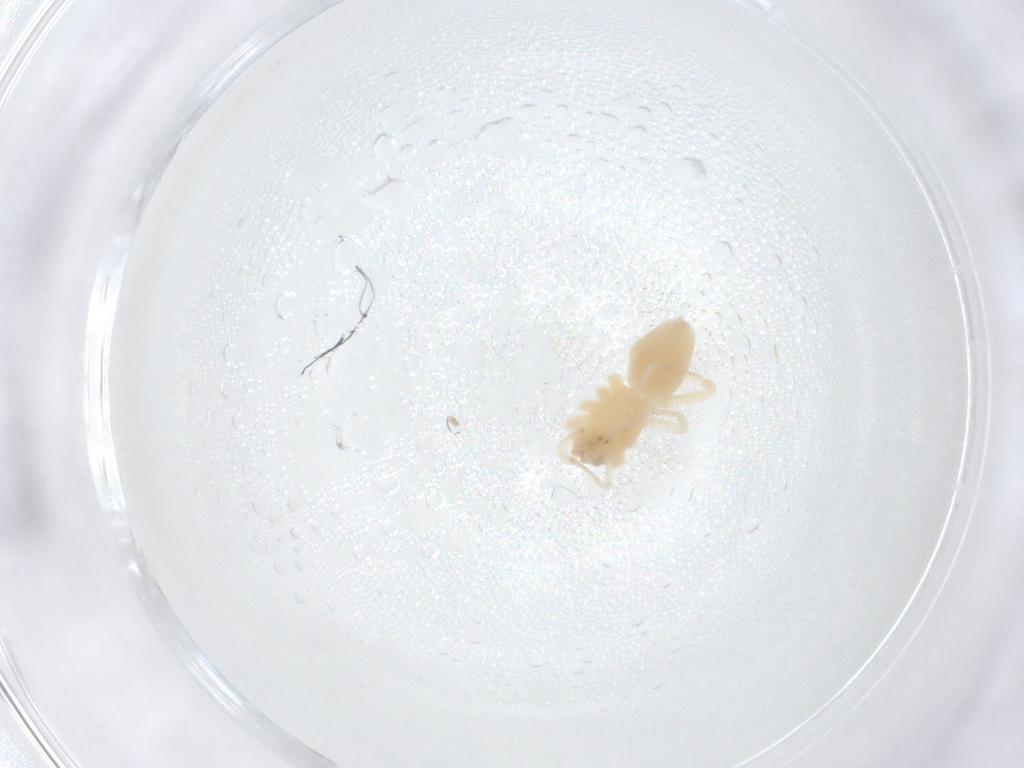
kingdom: Animalia
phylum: Arthropoda
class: Arachnida
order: Araneae
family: Anyphaenidae
